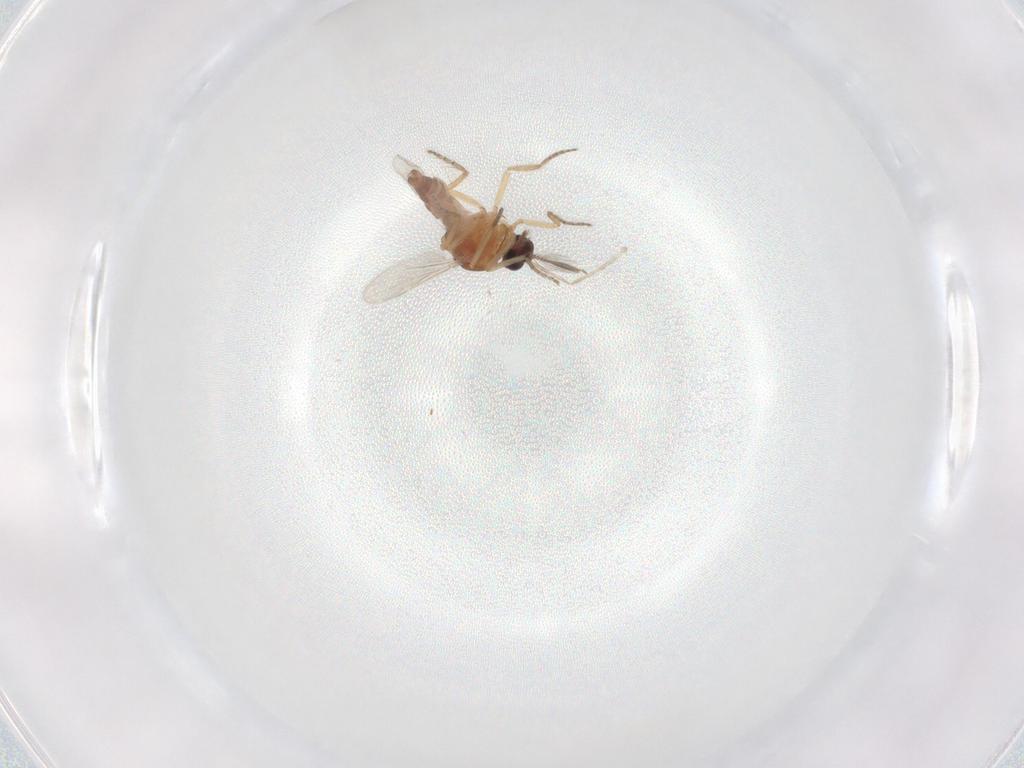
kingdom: Animalia
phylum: Arthropoda
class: Insecta
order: Diptera
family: Ceratopogonidae
